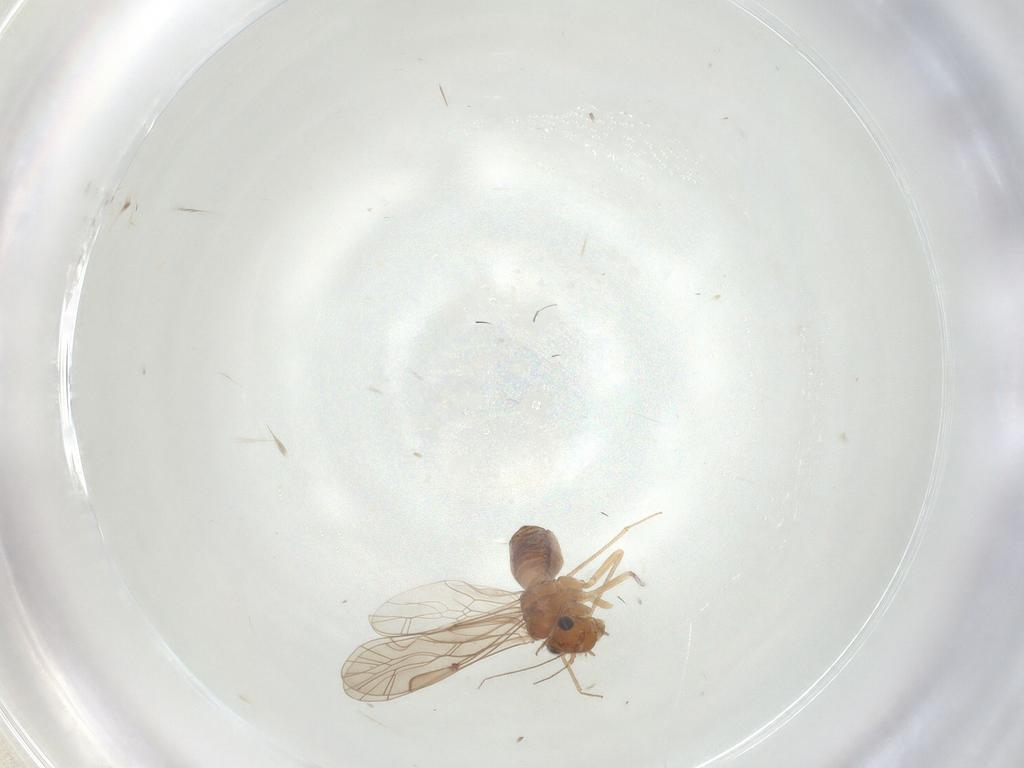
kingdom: Animalia
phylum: Arthropoda
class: Insecta
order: Psocodea
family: Lachesillidae
